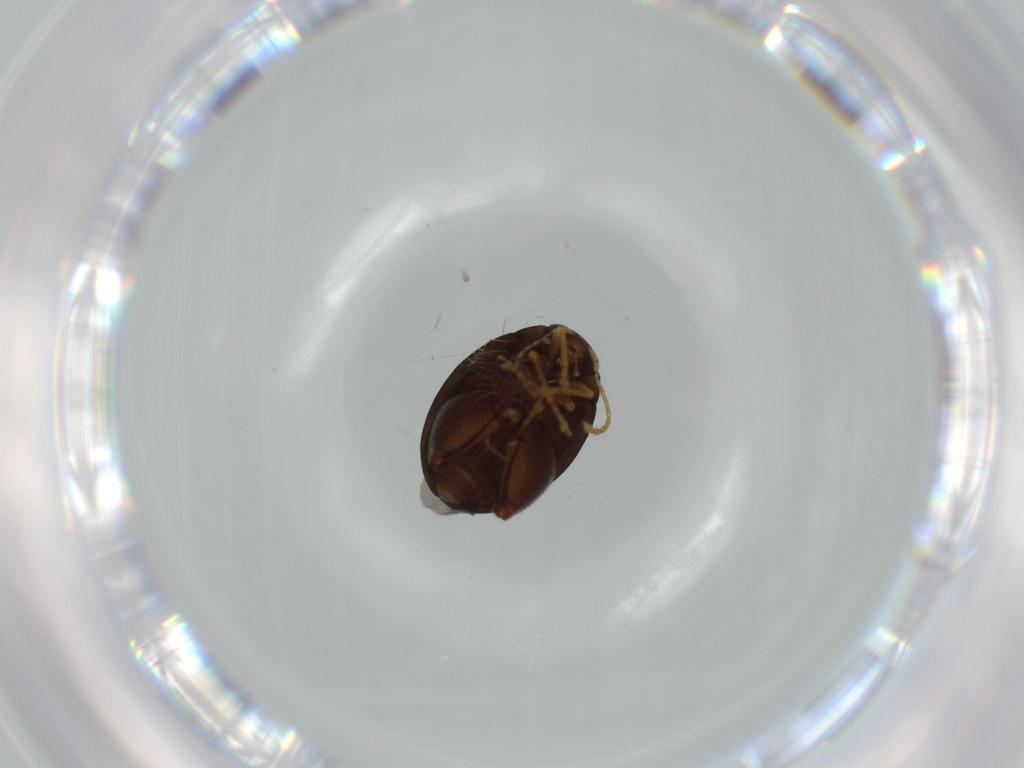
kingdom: Animalia
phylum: Arthropoda
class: Insecta
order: Coleoptera
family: Chrysomelidae
